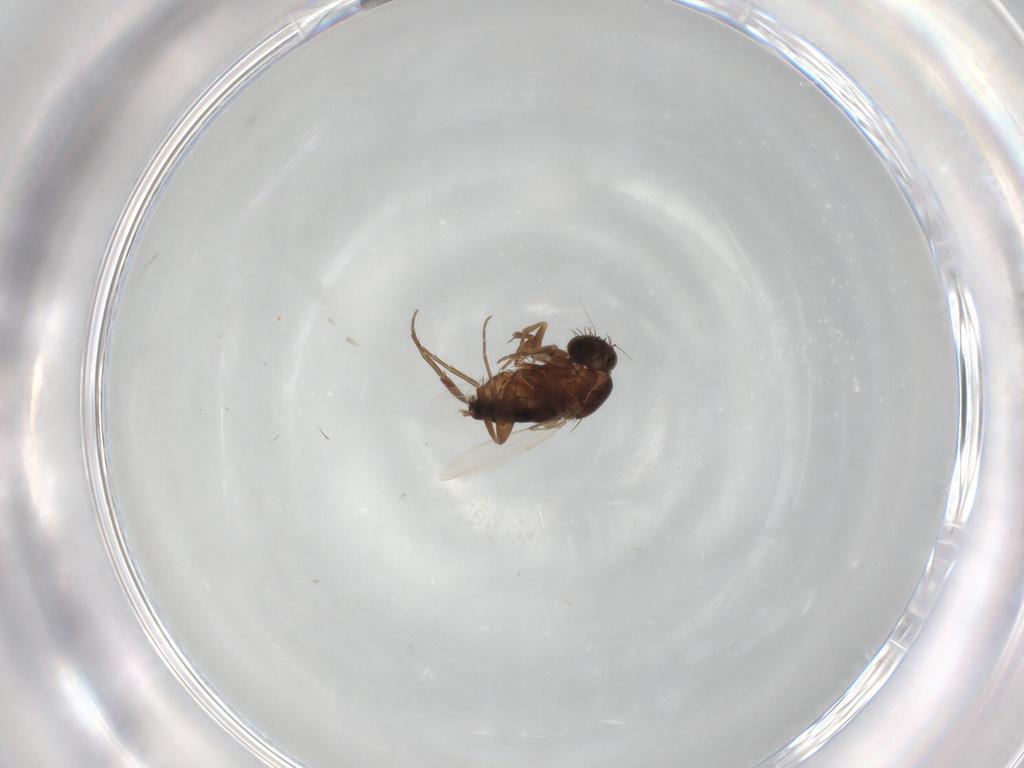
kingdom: Animalia
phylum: Arthropoda
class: Insecta
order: Diptera
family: Phoridae
